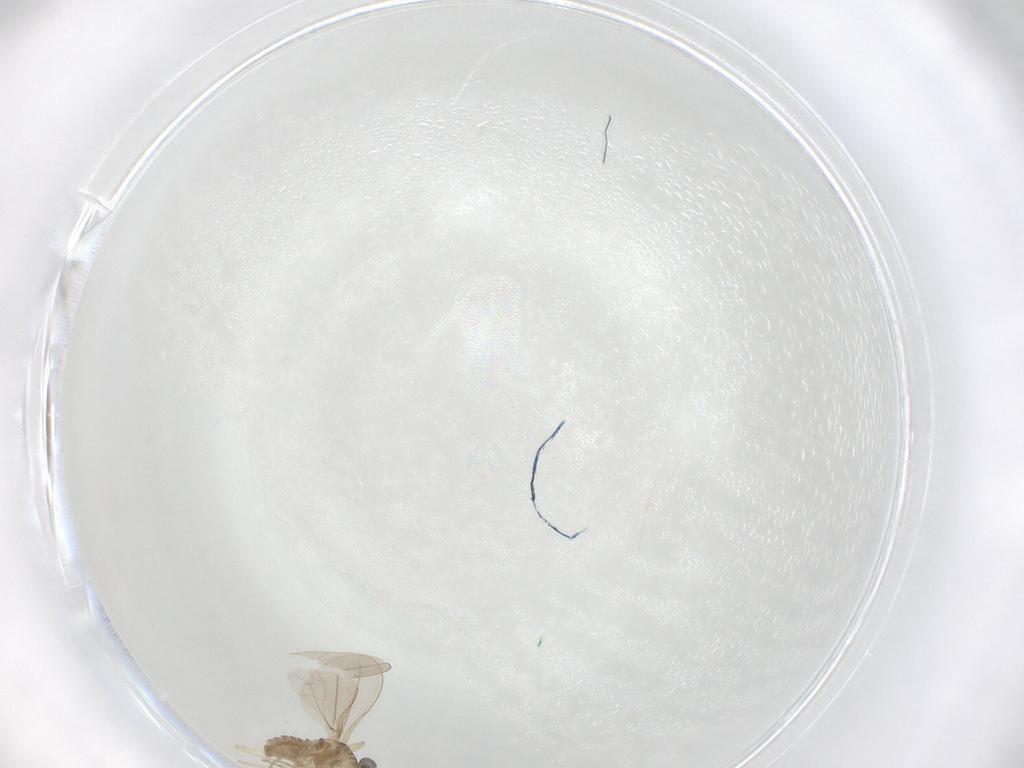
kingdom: Animalia
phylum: Arthropoda
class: Insecta
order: Diptera
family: Cecidomyiidae
